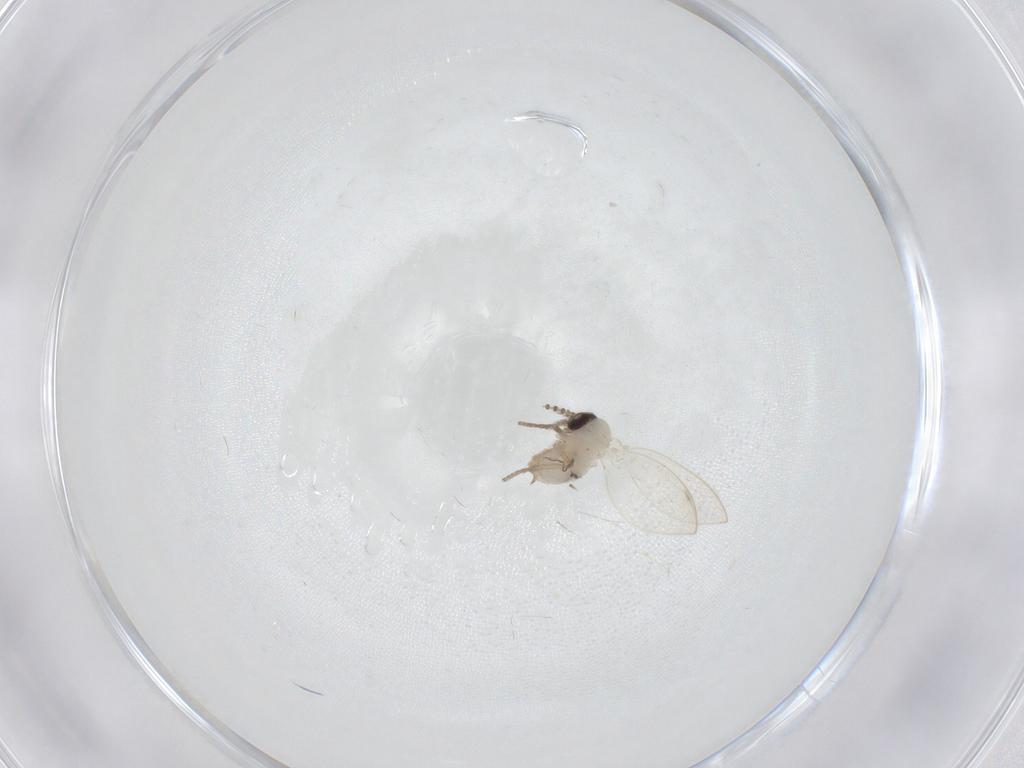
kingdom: Animalia
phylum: Arthropoda
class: Insecta
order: Diptera
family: Psychodidae
